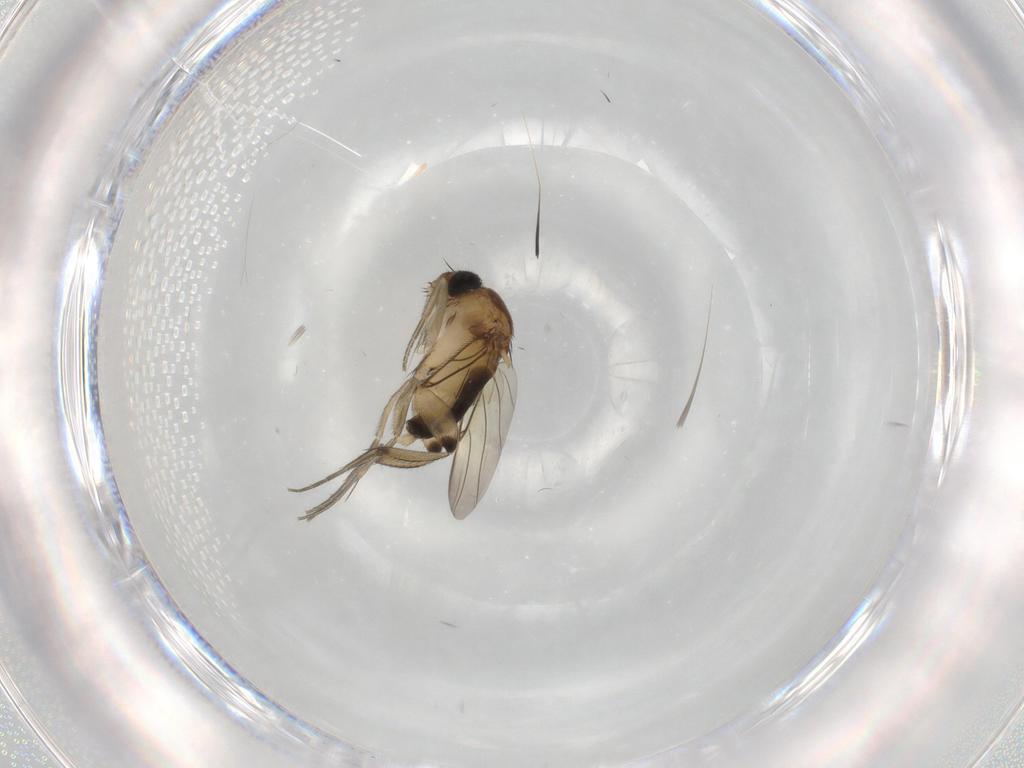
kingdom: Animalia
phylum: Arthropoda
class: Insecta
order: Diptera
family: Phoridae
